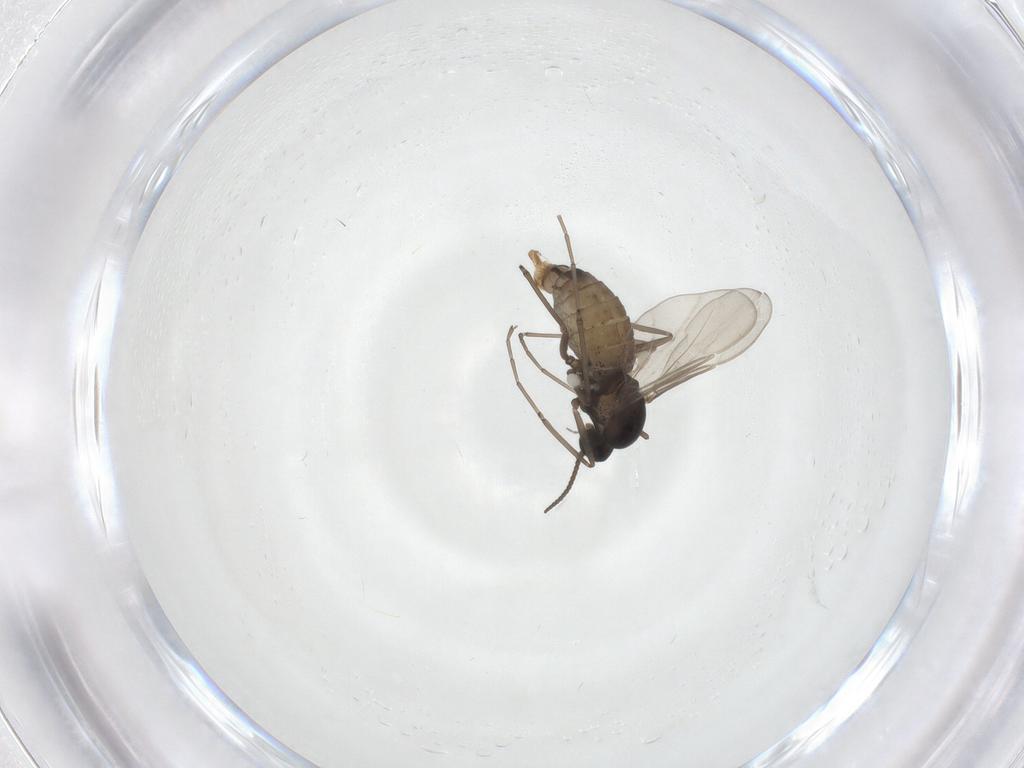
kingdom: Animalia
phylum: Arthropoda
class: Insecta
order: Diptera
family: Cecidomyiidae
